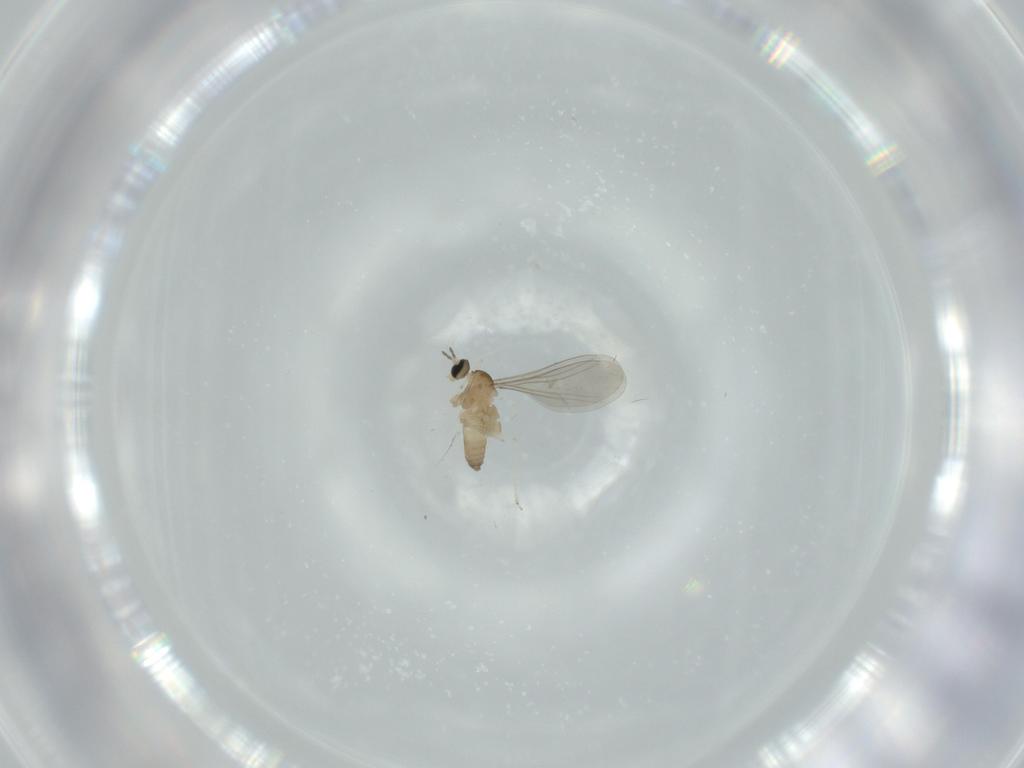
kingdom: Animalia
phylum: Arthropoda
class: Insecta
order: Diptera
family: Cecidomyiidae
